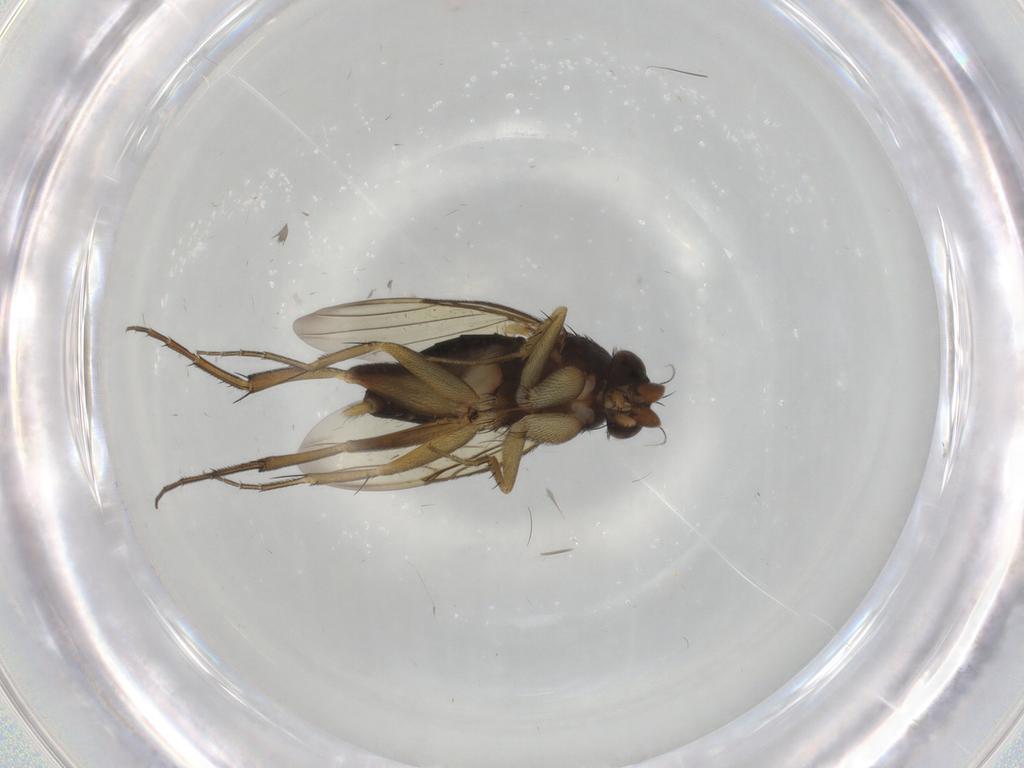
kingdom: Animalia
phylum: Arthropoda
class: Insecta
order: Diptera
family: Phoridae
